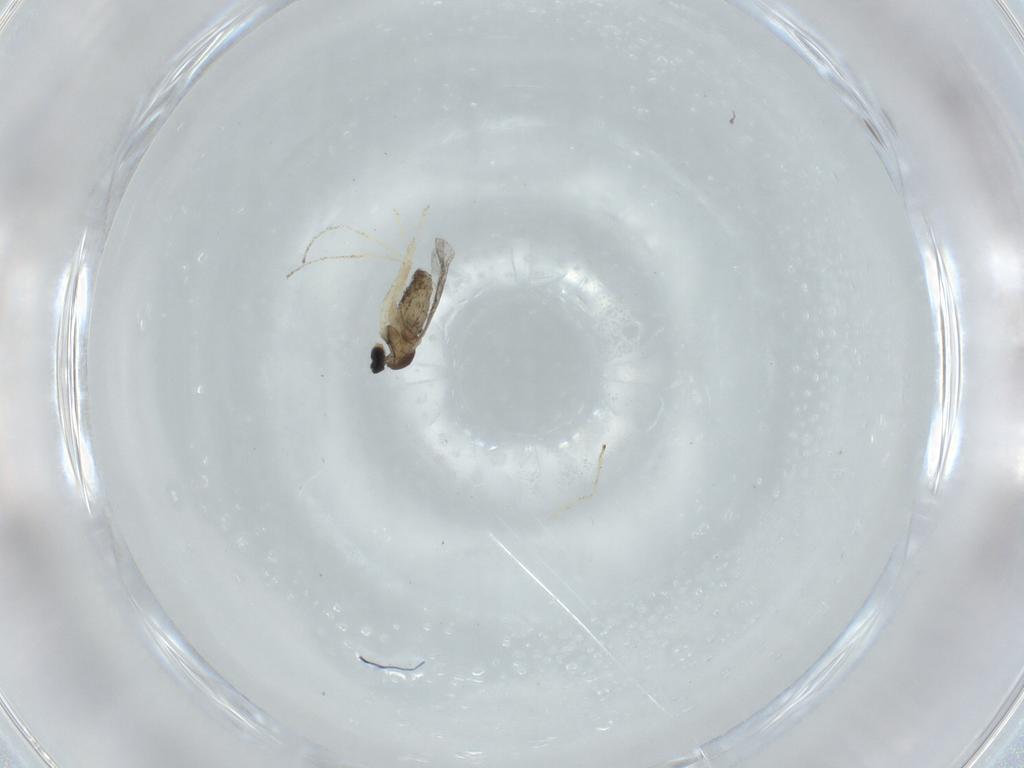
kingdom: Animalia
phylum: Arthropoda
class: Insecta
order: Diptera
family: Sciaridae
